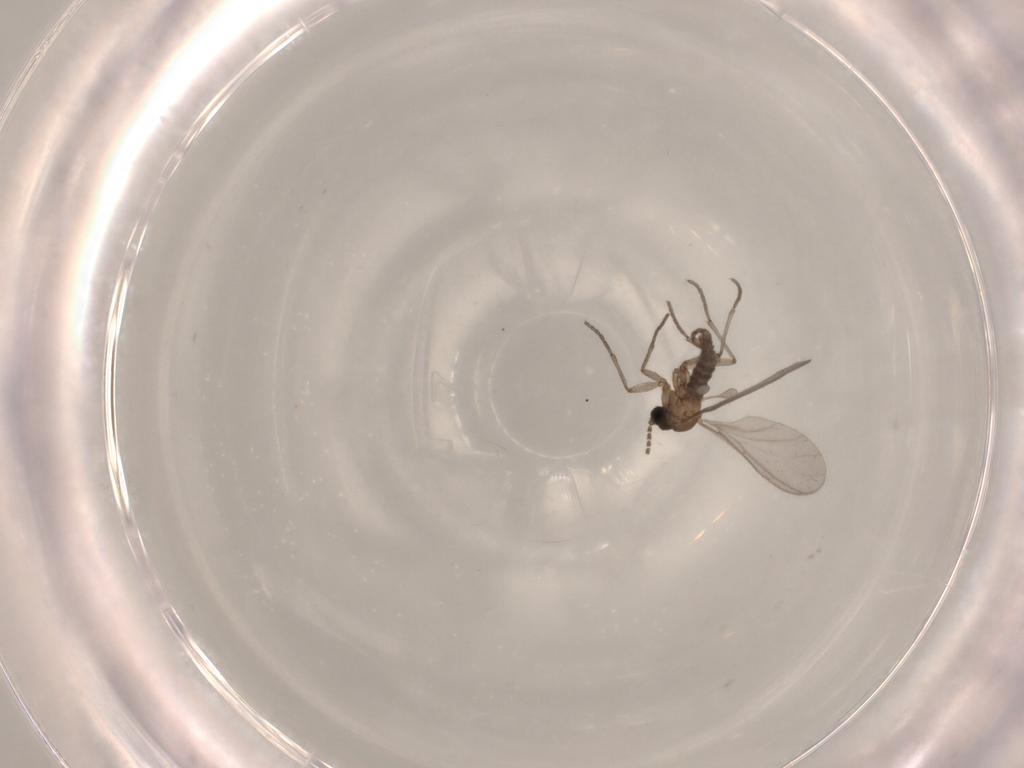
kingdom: Animalia
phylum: Arthropoda
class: Insecta
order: Diptera
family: Sciaridae
